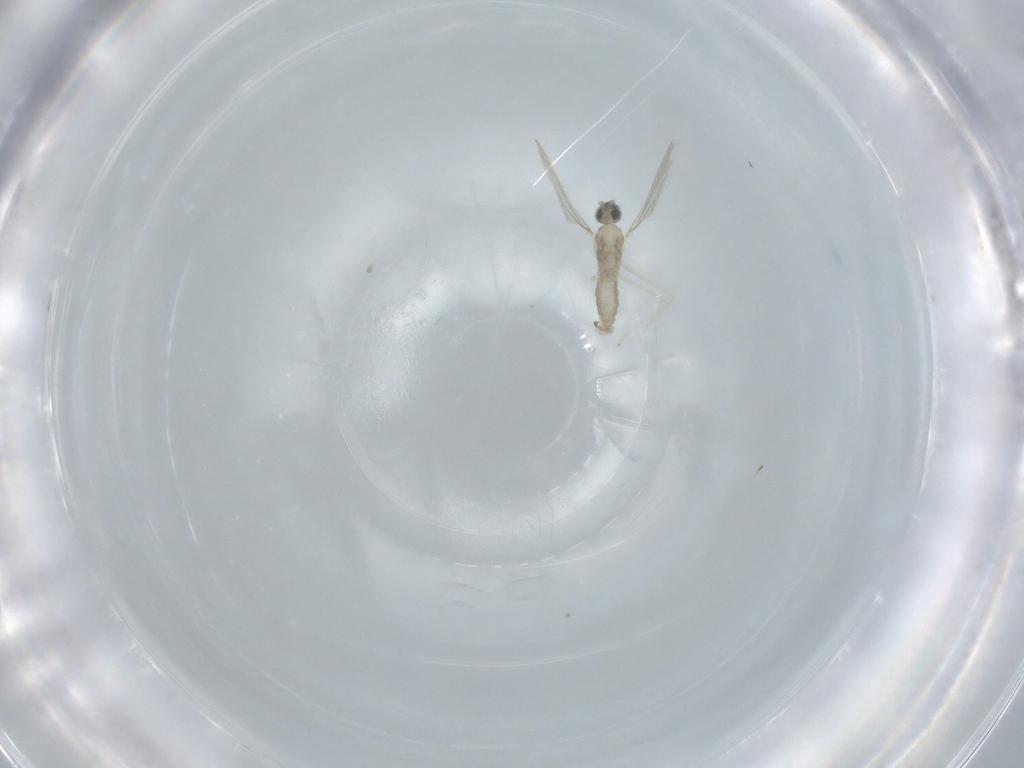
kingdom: Animalia
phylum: Arthropoda
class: Insecta
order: Diptera
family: Cecidomyiidae
